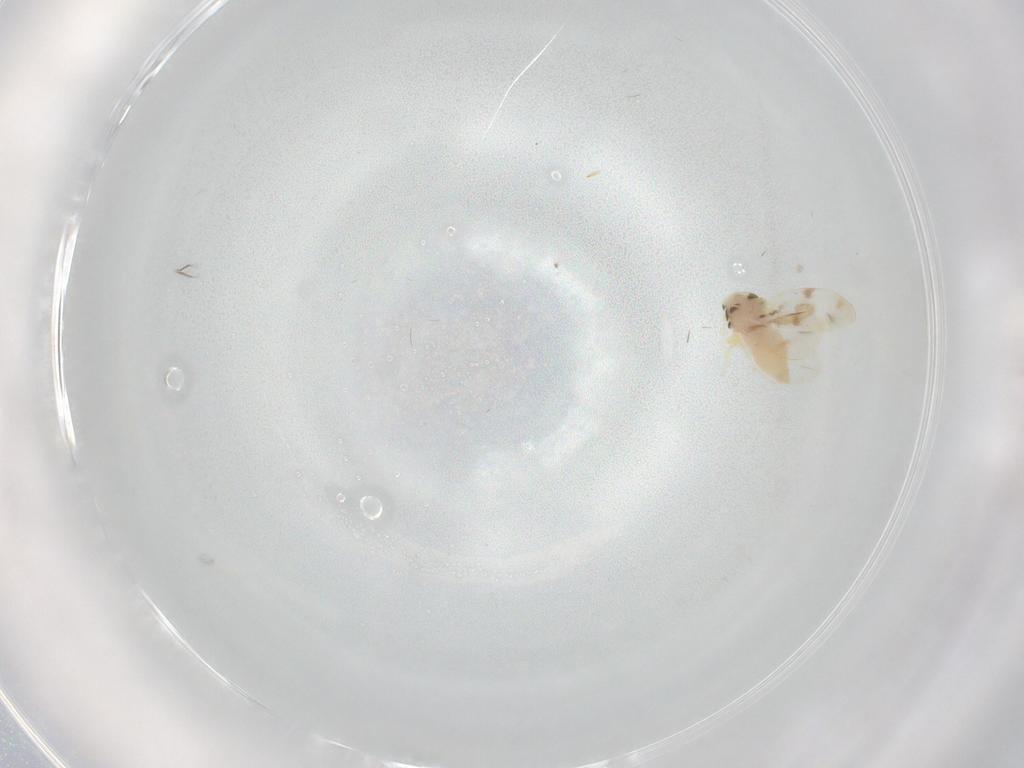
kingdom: Animalia
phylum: Arthropoda
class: Insecta
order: Hemiptera
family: Aleyrodidae
